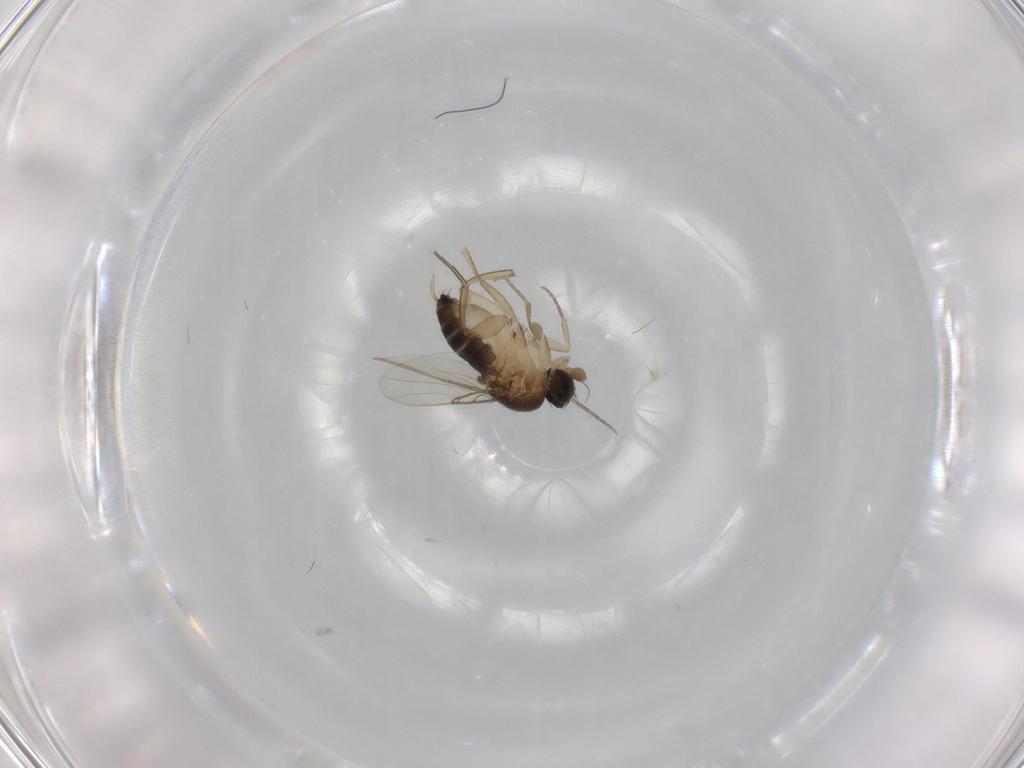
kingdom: Animalia
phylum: Arthropoda
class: Insecta
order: Diptera
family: Phoridae
